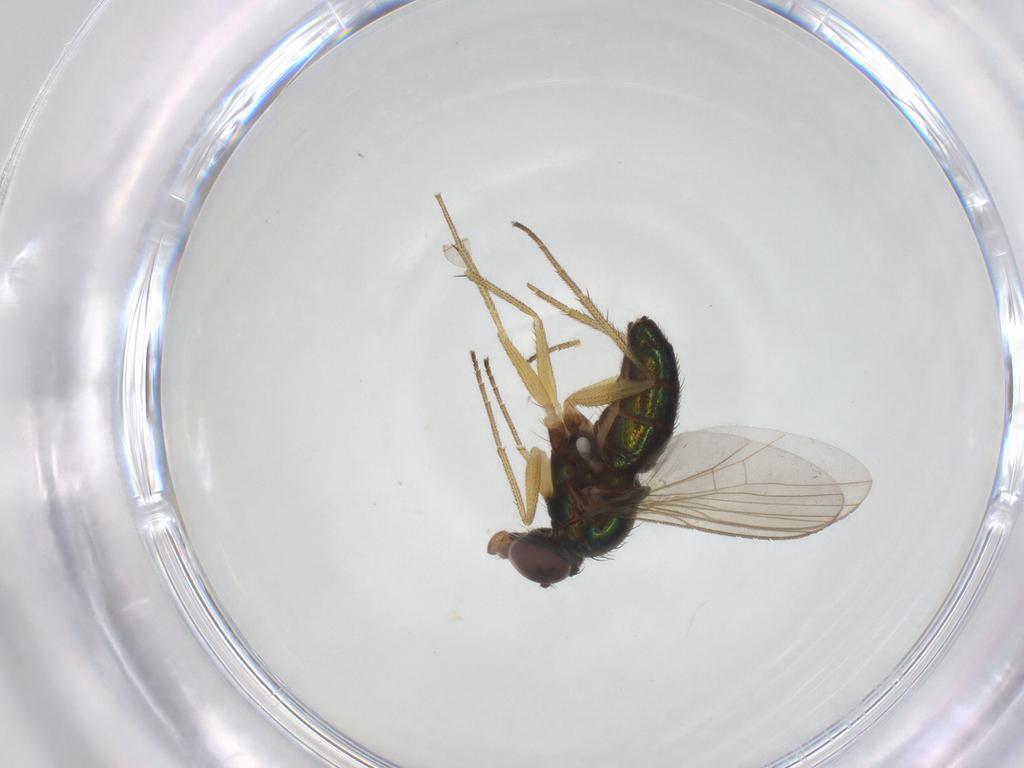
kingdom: Animalia
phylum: Arthropoda
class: Insecta
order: Diptera
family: Dolichopodidae
